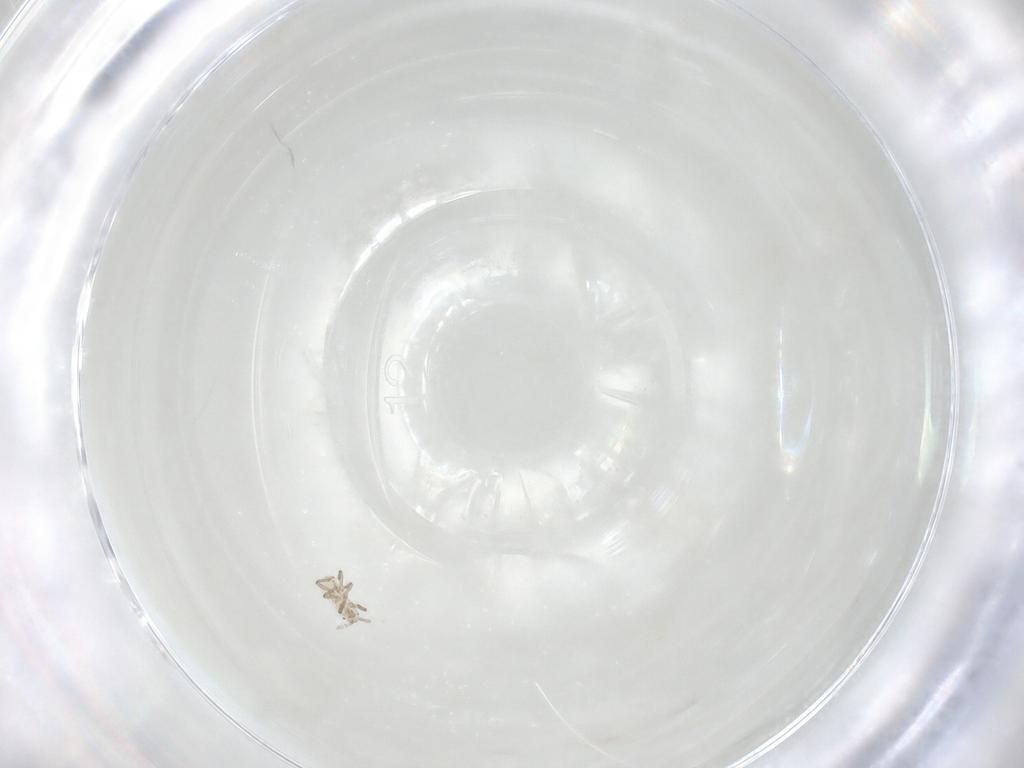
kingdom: Animalia
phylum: Arthropoda
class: Insecta
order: Hemiptera
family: Aphididae
